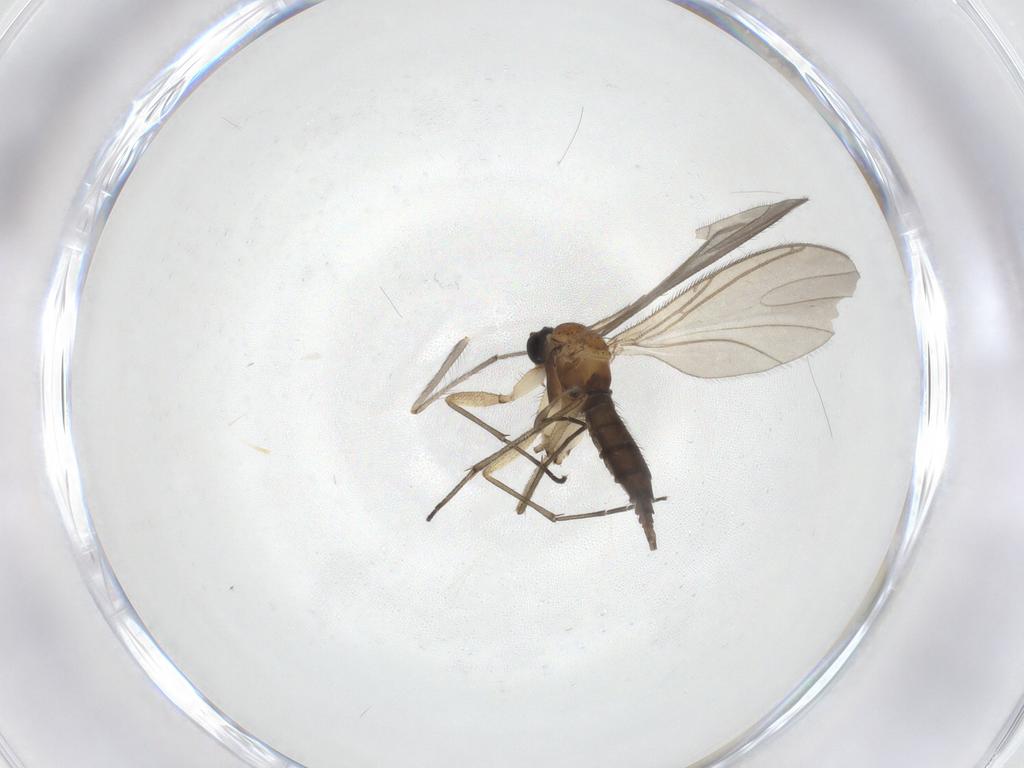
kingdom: Animalia
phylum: Arthropoda
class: Insecta
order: Diptera
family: Sciaridae
